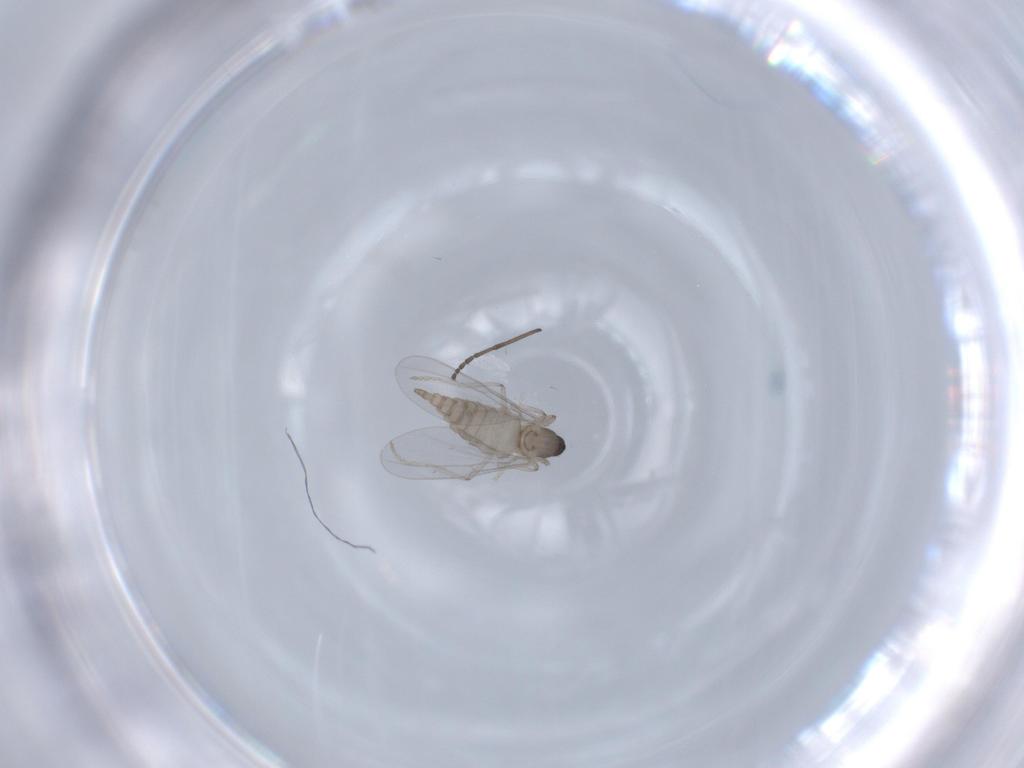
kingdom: Animalia
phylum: Arthropoda
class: Insecta
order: Diptera
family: Cecidomyiidae
